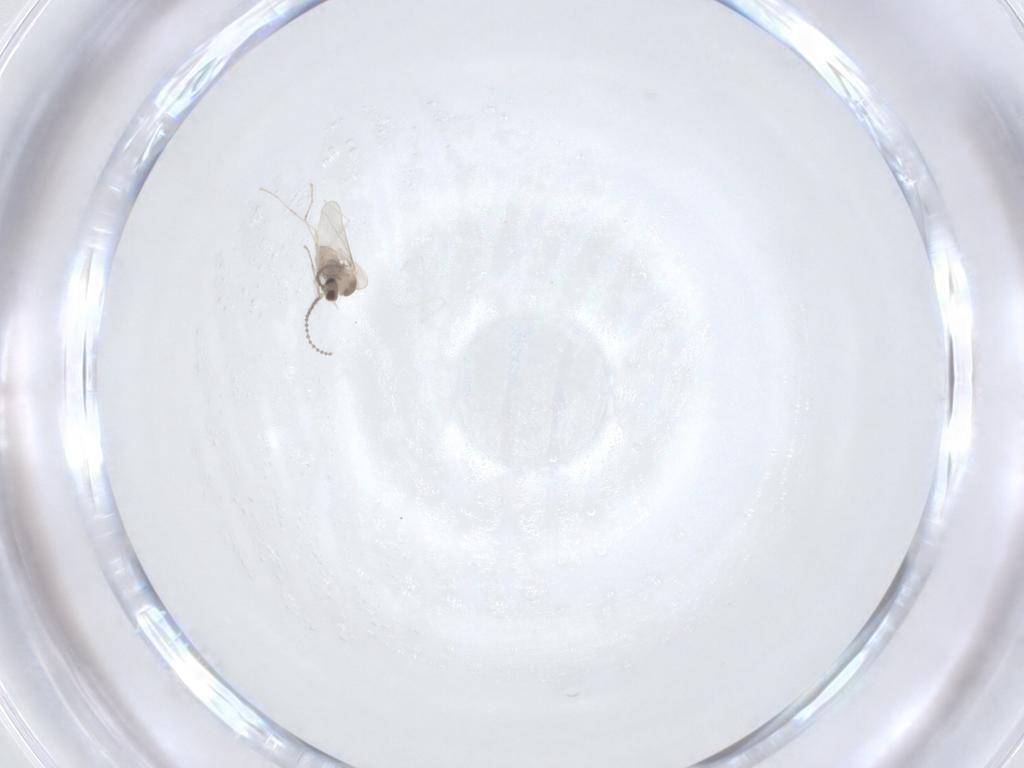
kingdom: Animalia
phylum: Arthropoda
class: Insecta
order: Diptera
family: Cecidomyiidae
